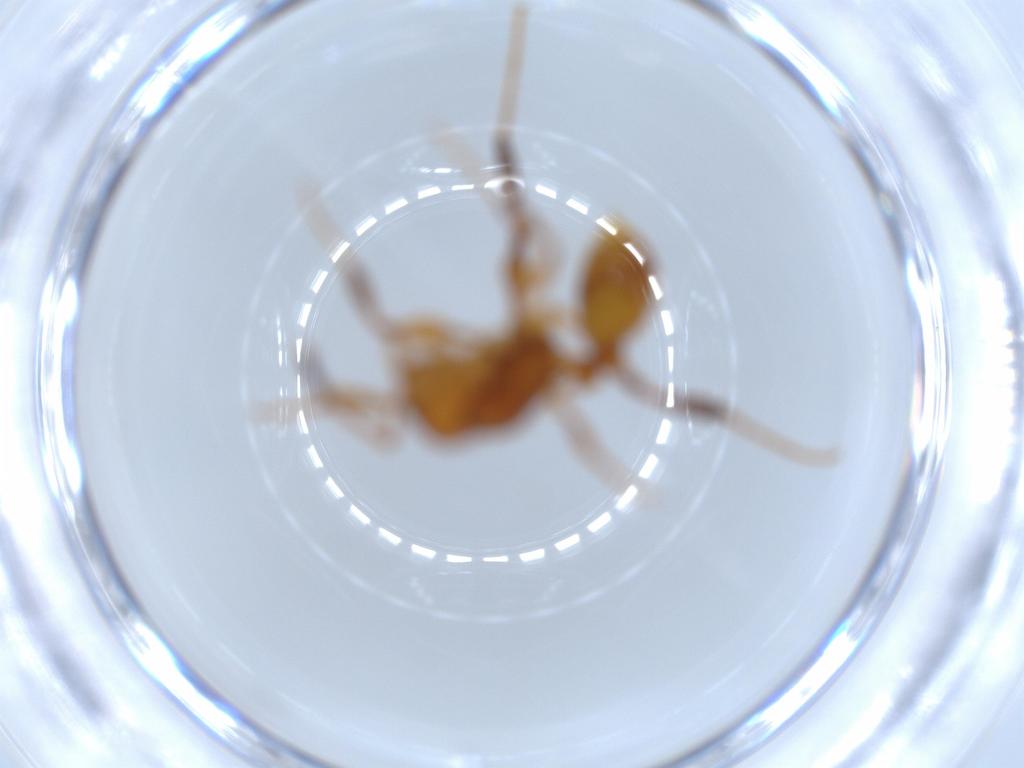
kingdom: Animalia
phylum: Arthropoda
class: Insecta
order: Hymenoptera
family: Formicidae
